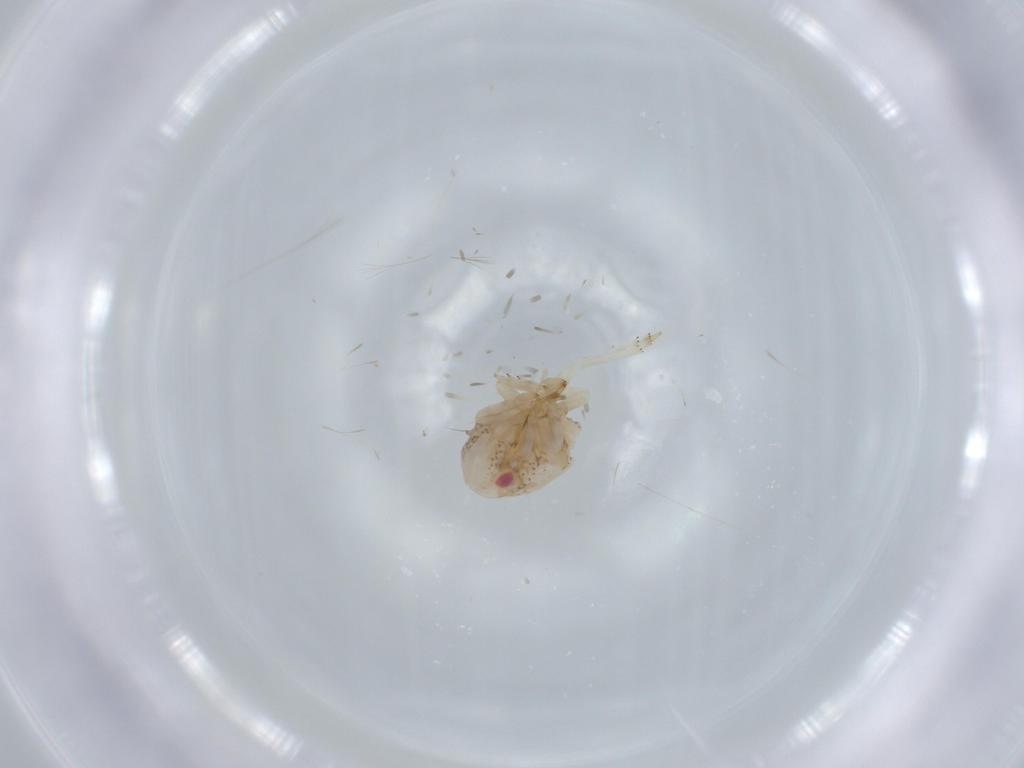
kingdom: Animalia
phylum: Arthropoda
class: Insecta
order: Hemiptera
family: Acanaloniidae
